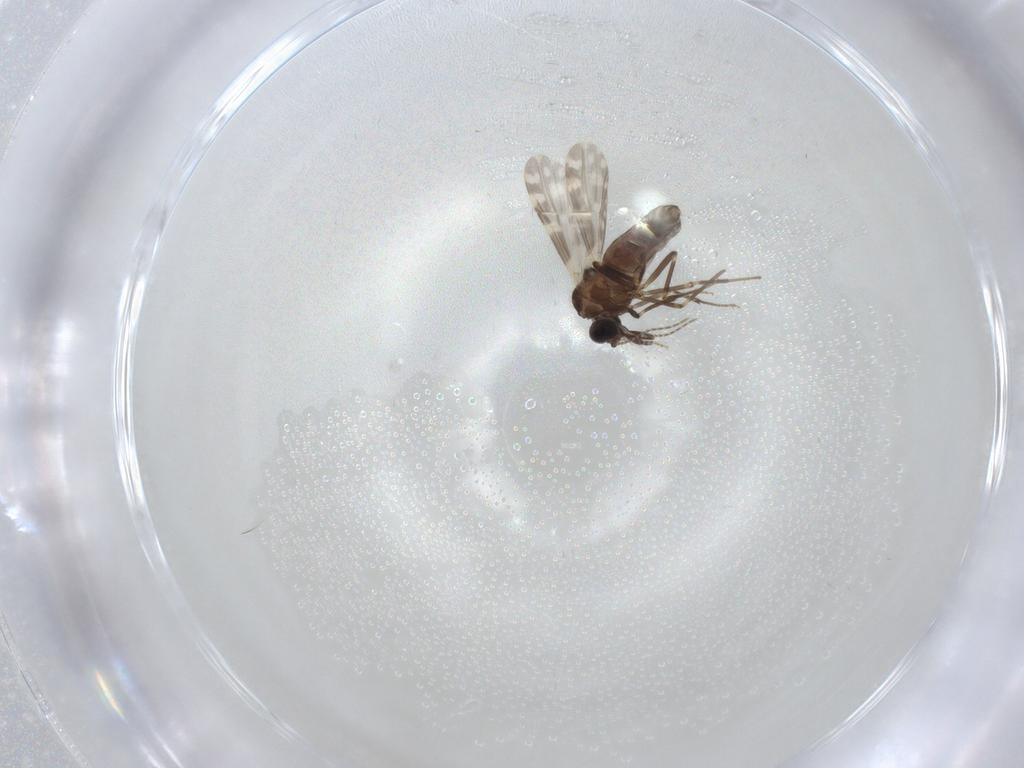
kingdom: Animalia
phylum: Arthropoda
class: Insecta
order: Diptera
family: Ceratopogonidae
